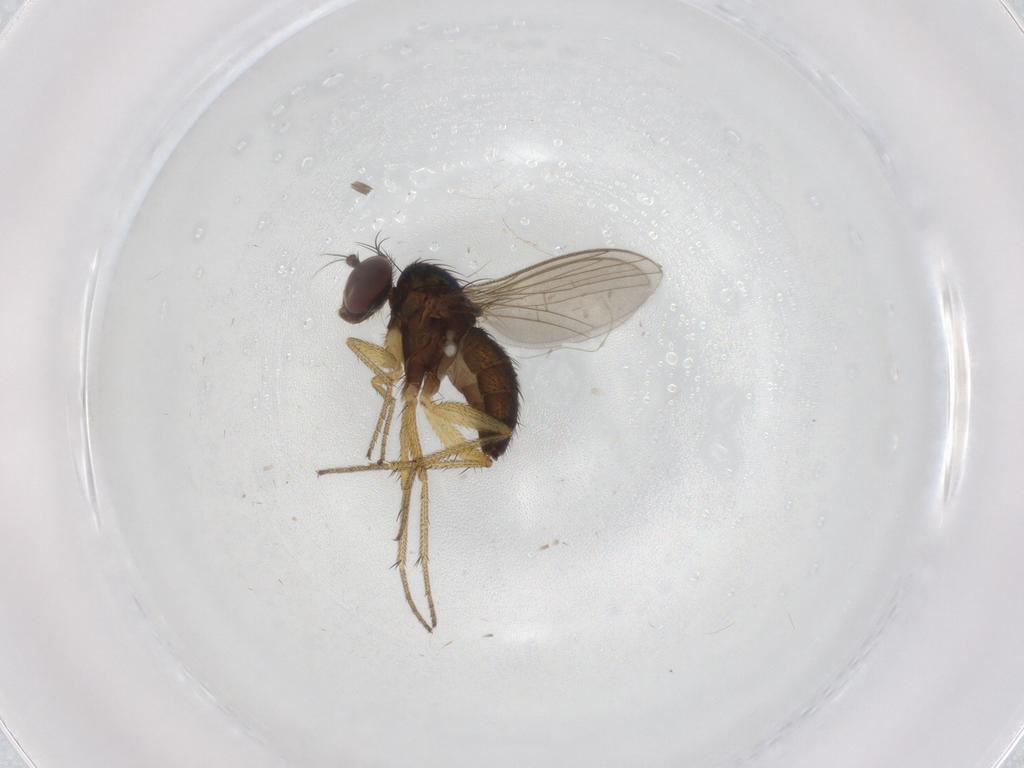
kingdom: Animalia
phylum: Arthropoda
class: Insecta
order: Diptera
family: Dolichopodidae
